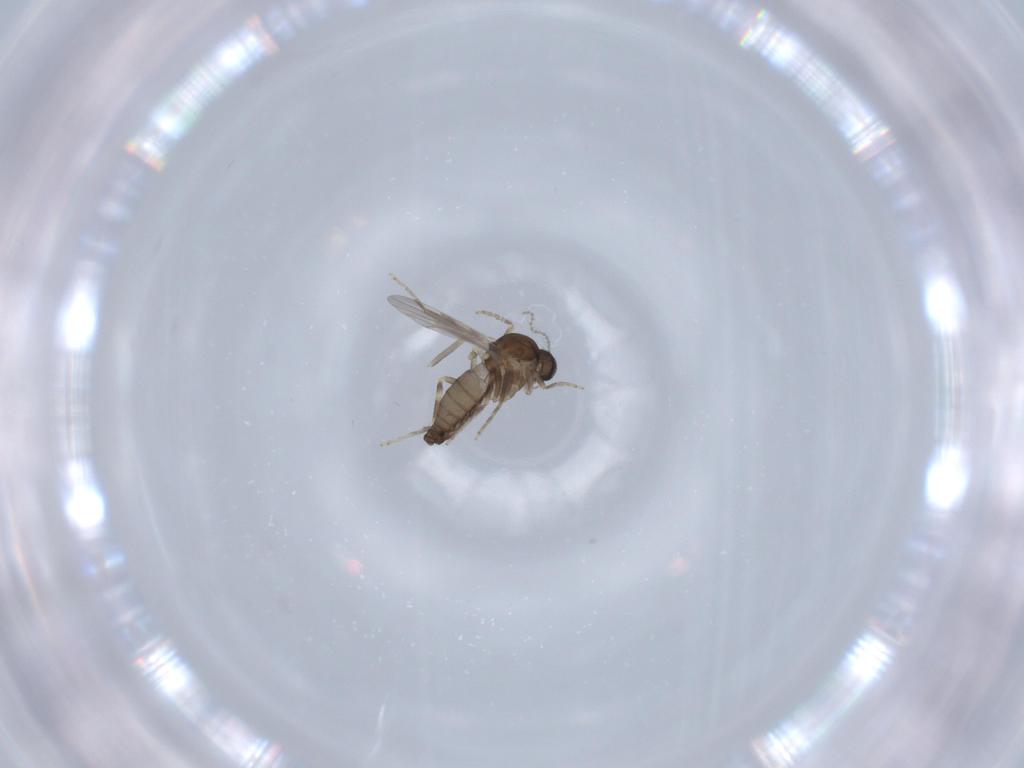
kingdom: Animalia
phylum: Arthropoda
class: Insecta
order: Diptera
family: Ceratopogonidae
